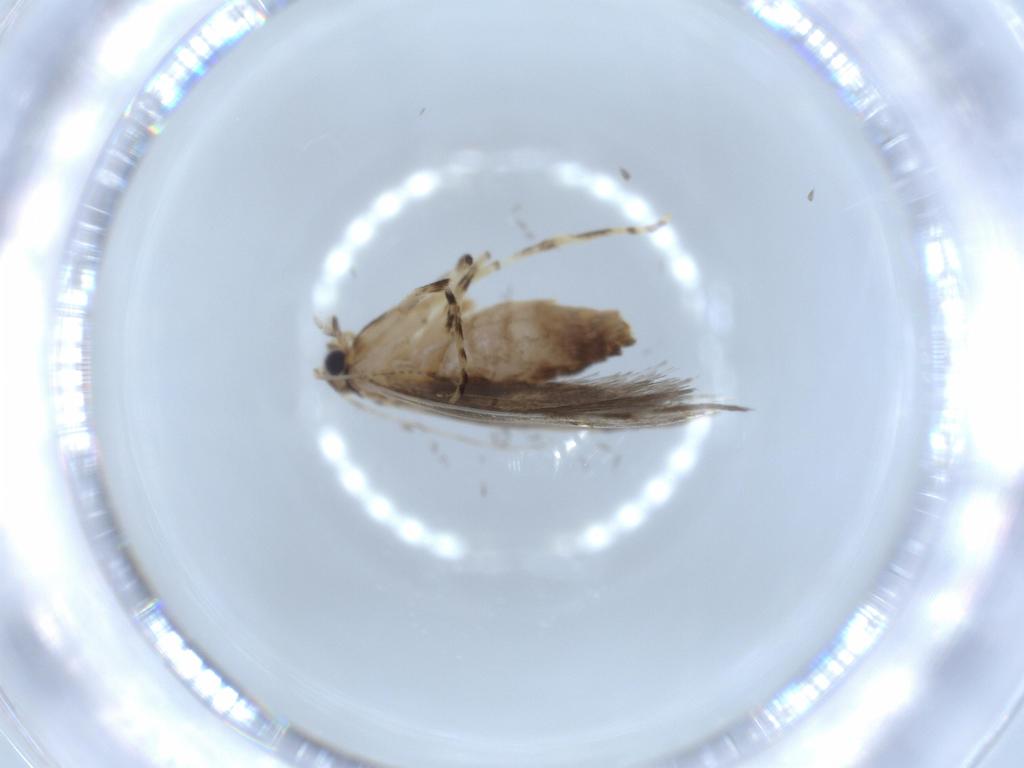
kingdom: Animalia
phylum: Arthropoda
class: Insecta
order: Lepidoptera
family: Tineidae
